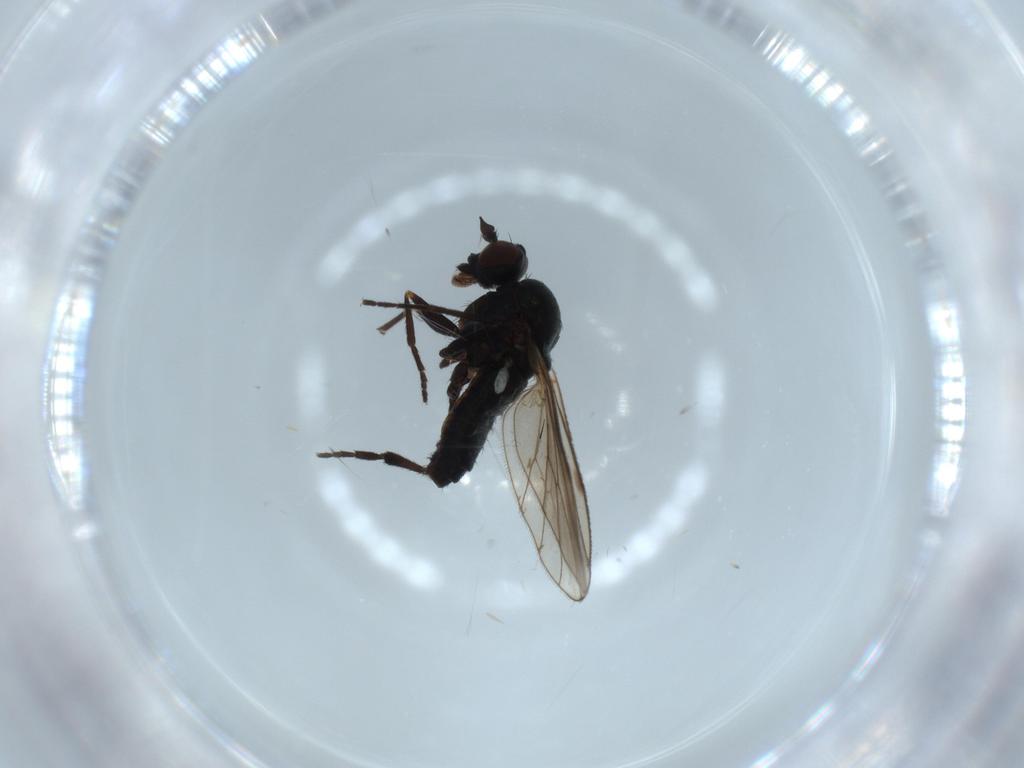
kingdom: Animalia
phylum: Arthropoda
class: Insecta
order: Diptera
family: Dolichopodidae
